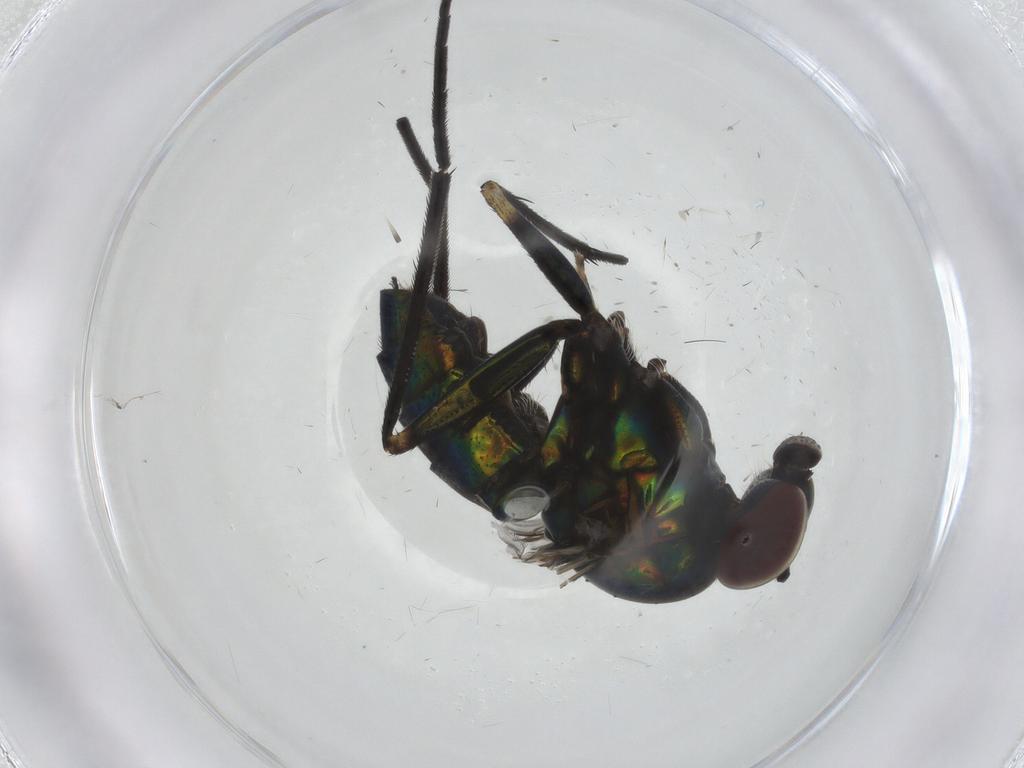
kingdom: Animalia
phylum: Arthropoda
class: Insecta
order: Diptera
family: Dolichopodidae
